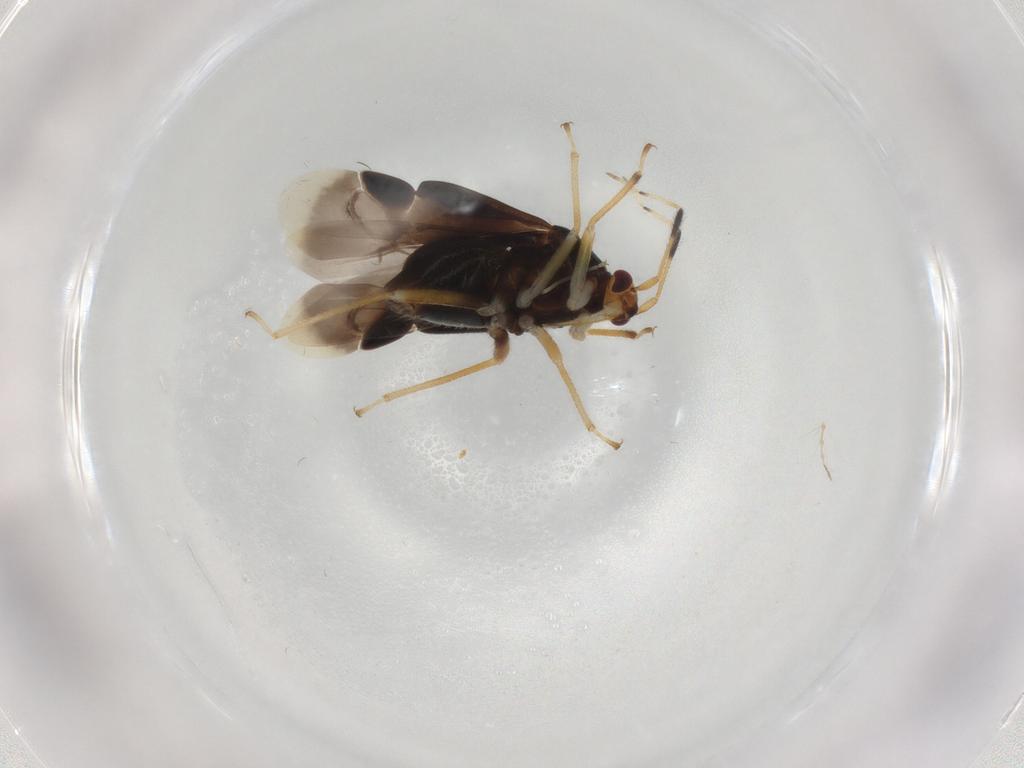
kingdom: Animalia
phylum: Arthropoda
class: Insecta
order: Hemiptera
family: Miridae
